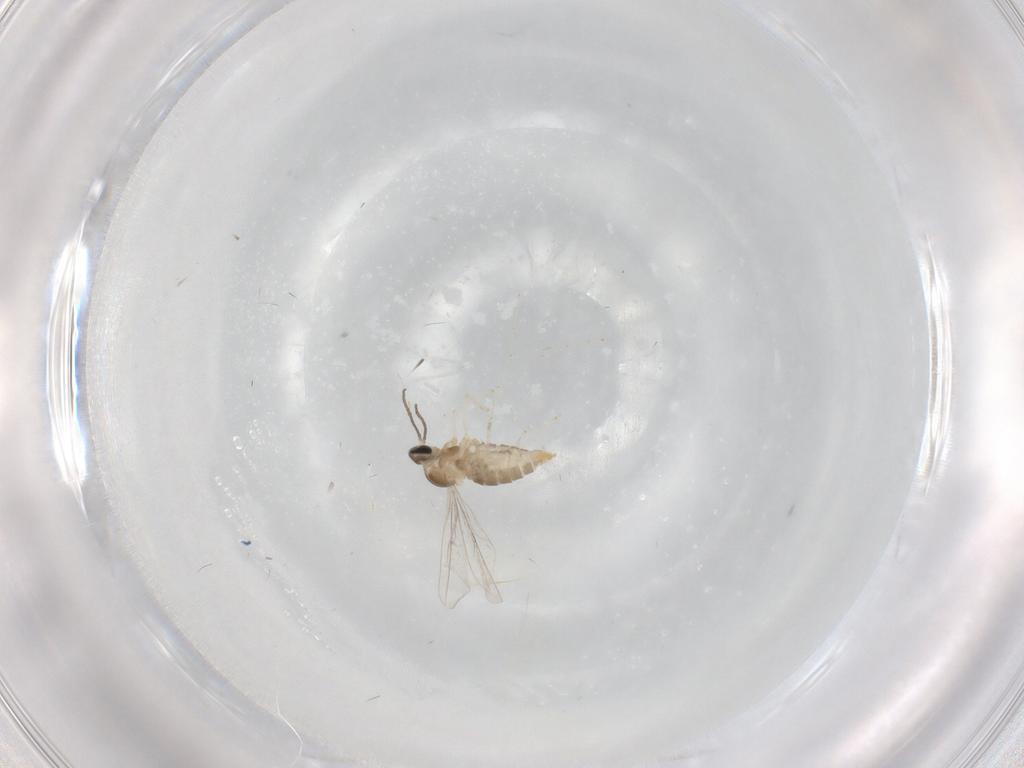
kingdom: Animalia
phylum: Arthropoda
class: Insecta
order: Diptera
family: Cecidomyiidae
